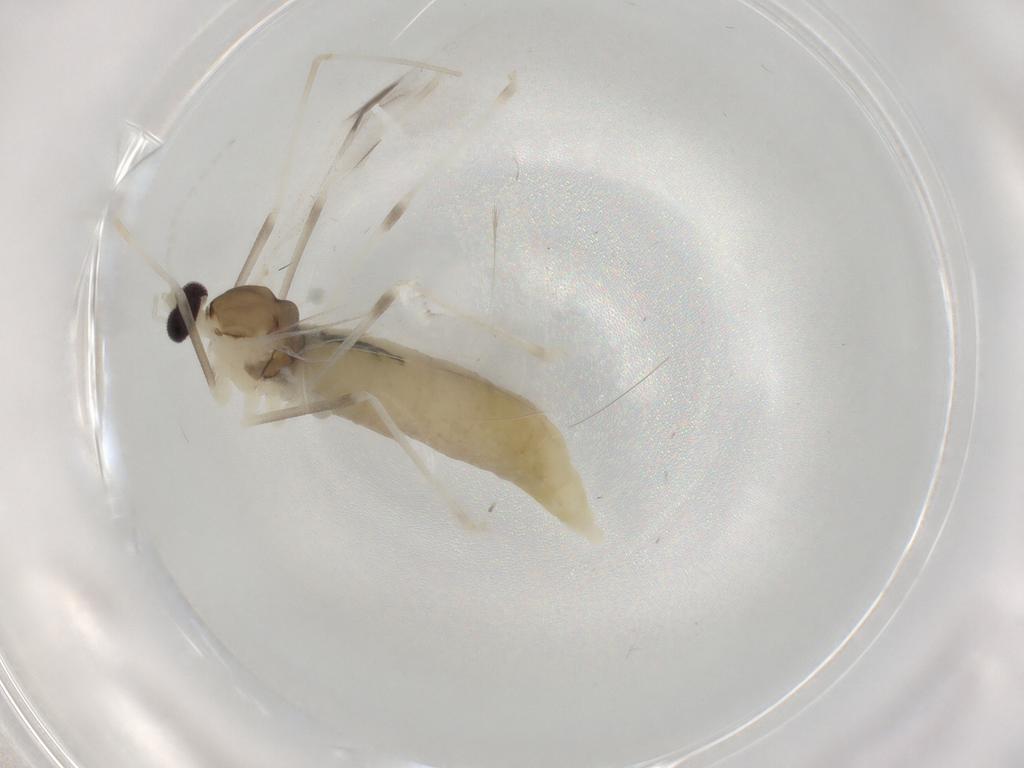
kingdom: Animalia
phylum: Arthropoda
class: Insecta
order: Diptera
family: Cecidomyiidae
